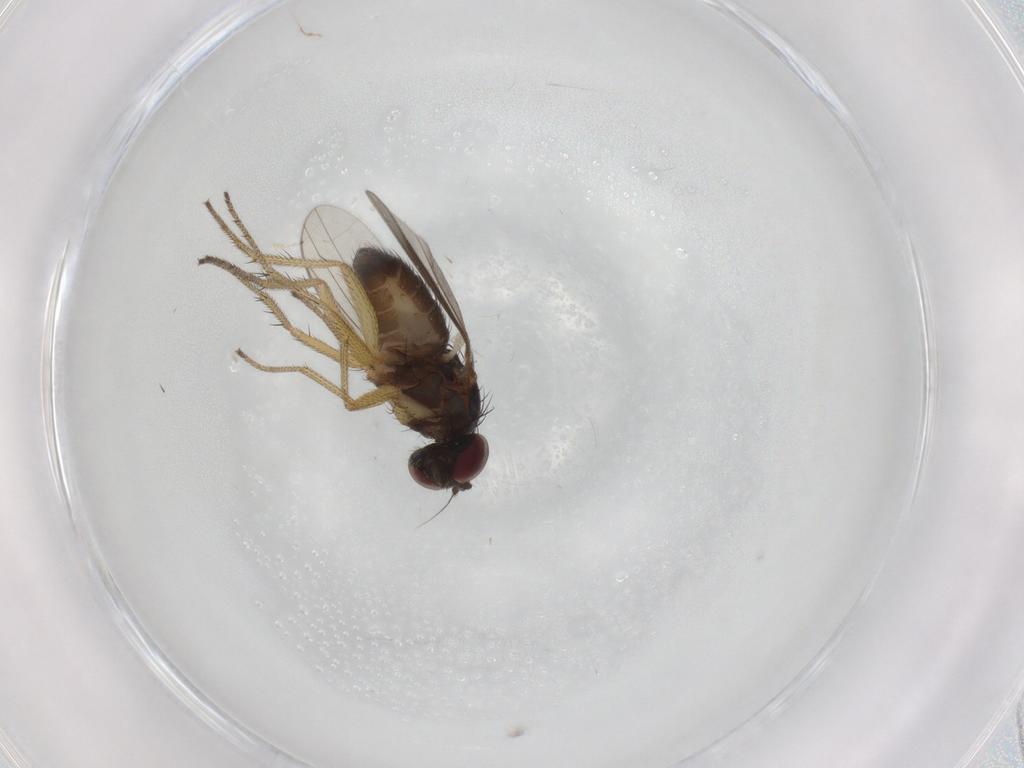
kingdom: Animalia
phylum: Arthropoda
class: Insecta
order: Diptera
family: Dolichopodidae
